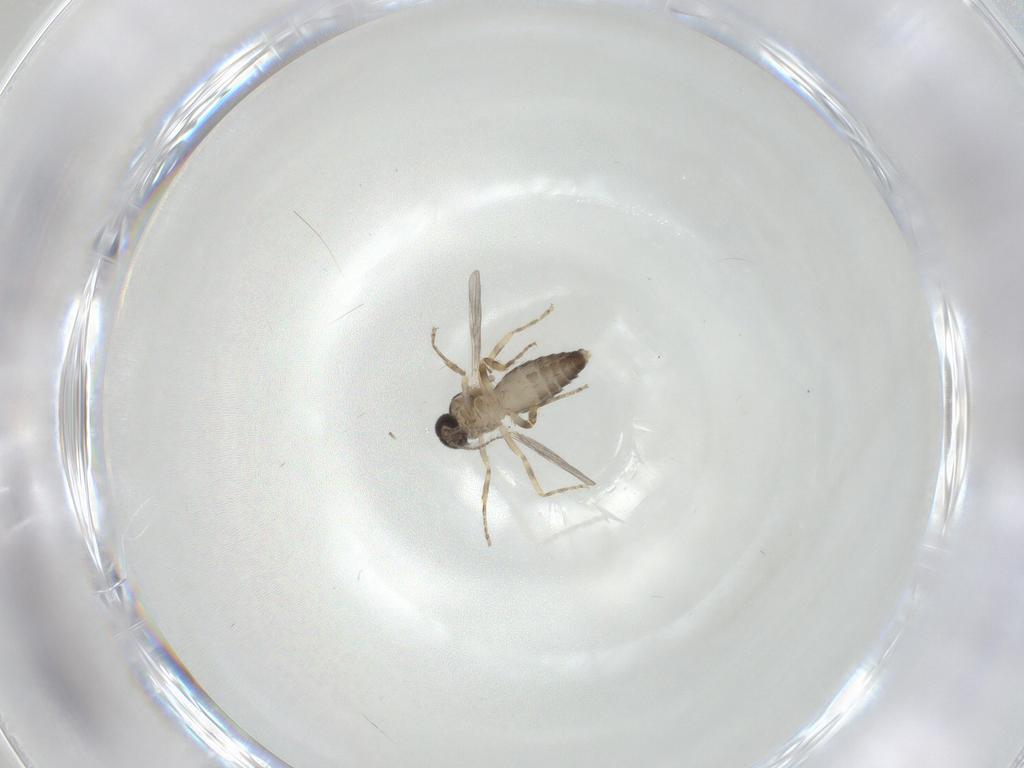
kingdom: Animalia
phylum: Arthropoda
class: Insecta
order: Diptera
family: Ceratopogonidae
